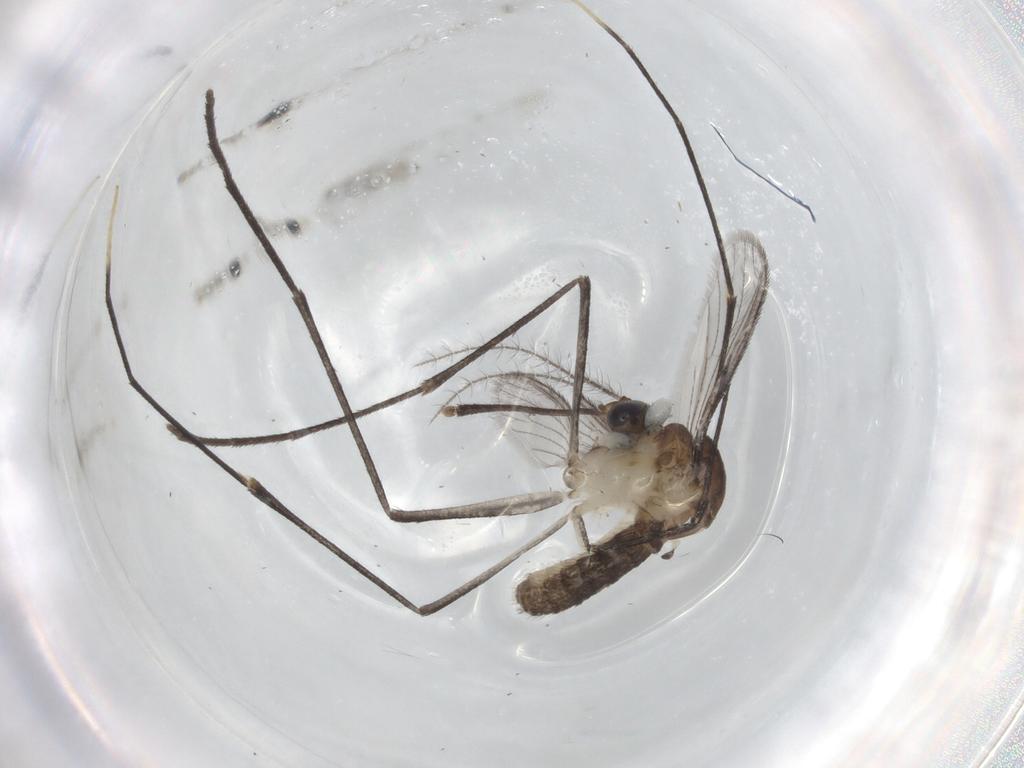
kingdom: Animalia
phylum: Arthropoda
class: Insecta
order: Diptera
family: Phoridae
